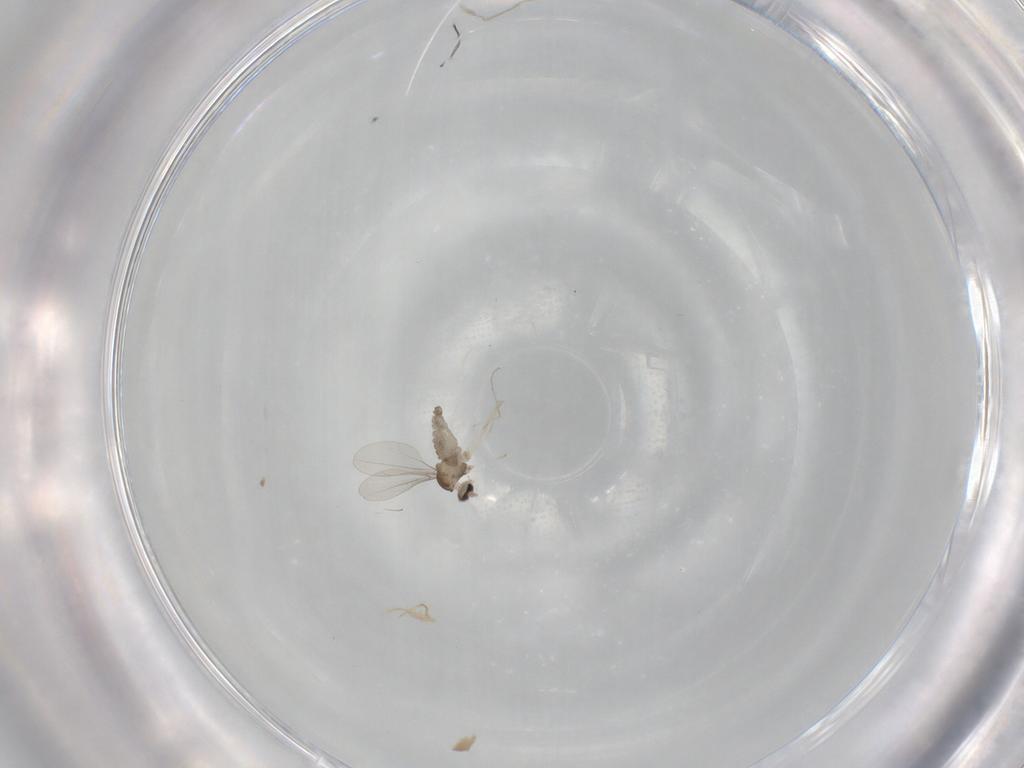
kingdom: Animalia
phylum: Arthropoda
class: Insecta
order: Diptera
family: Cecidomyiidae
